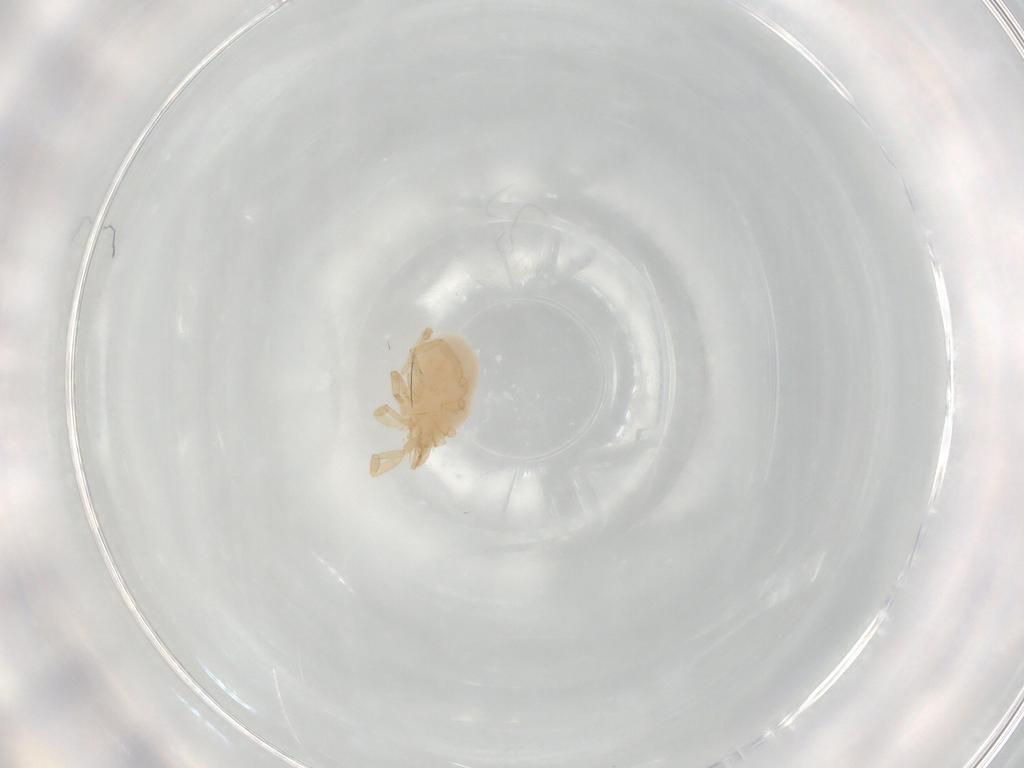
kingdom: Animalia
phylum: Arthropoda
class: Arachnida
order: Trombidiformes
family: Erythraeidae
